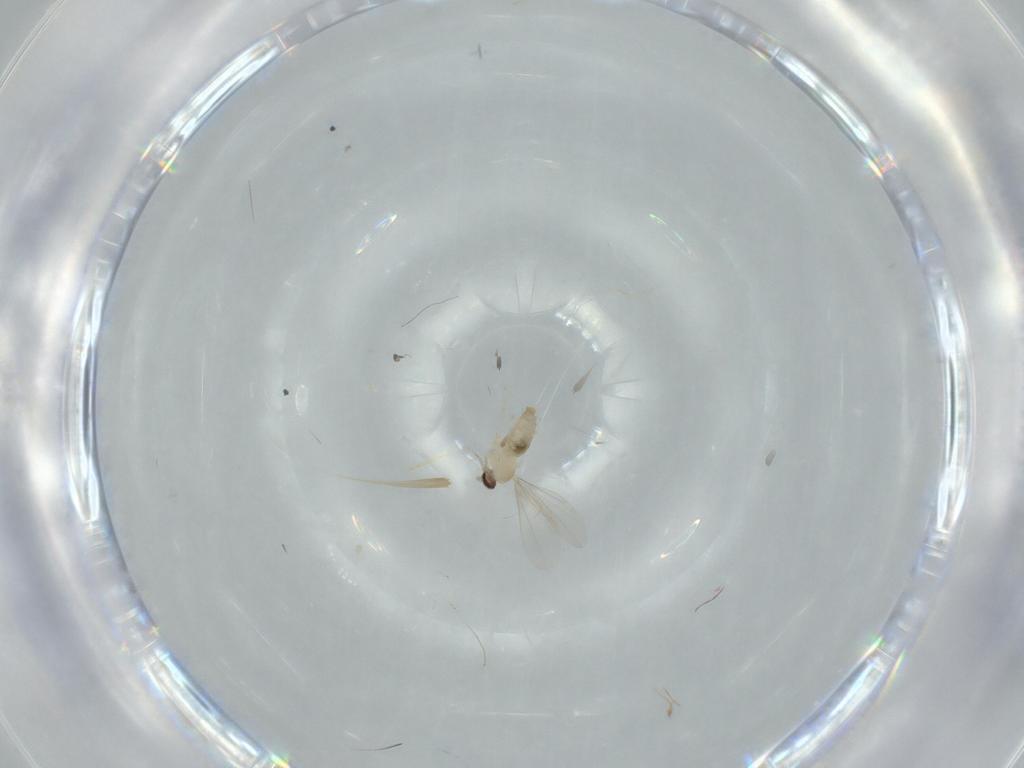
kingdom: Animalia
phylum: Arthropoda
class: Insecta
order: Diptera
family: Cecidomyiidae
